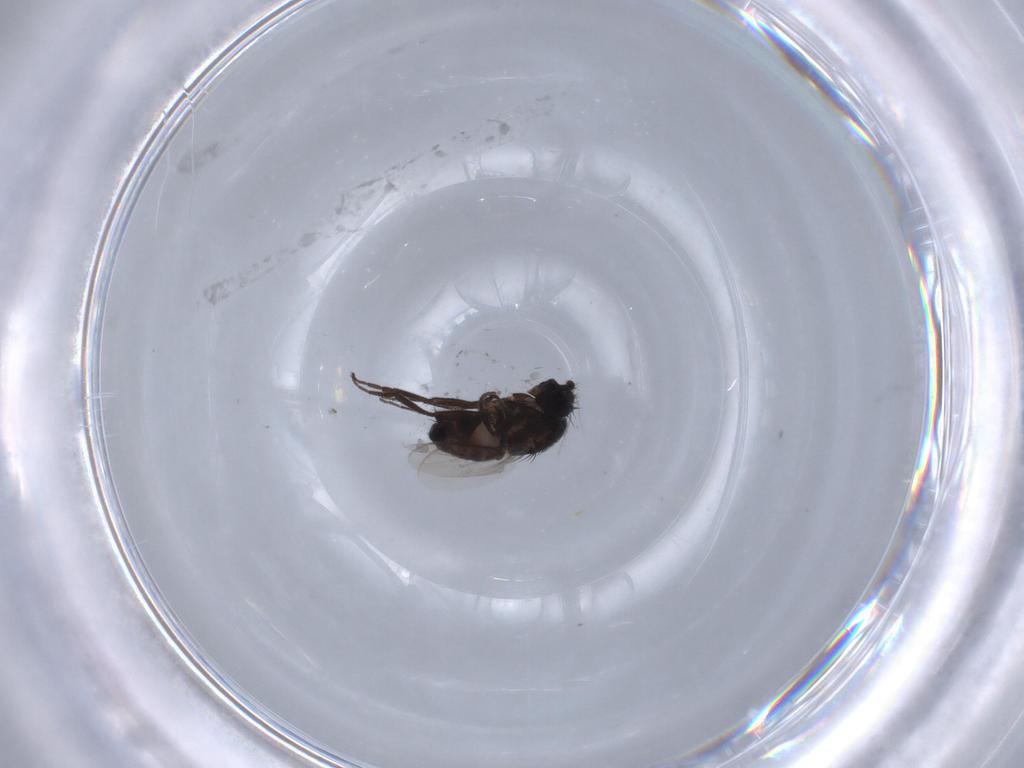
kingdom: Animalia
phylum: Arthropoda
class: Insecta
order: Diptera
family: Sphaeroceridae
